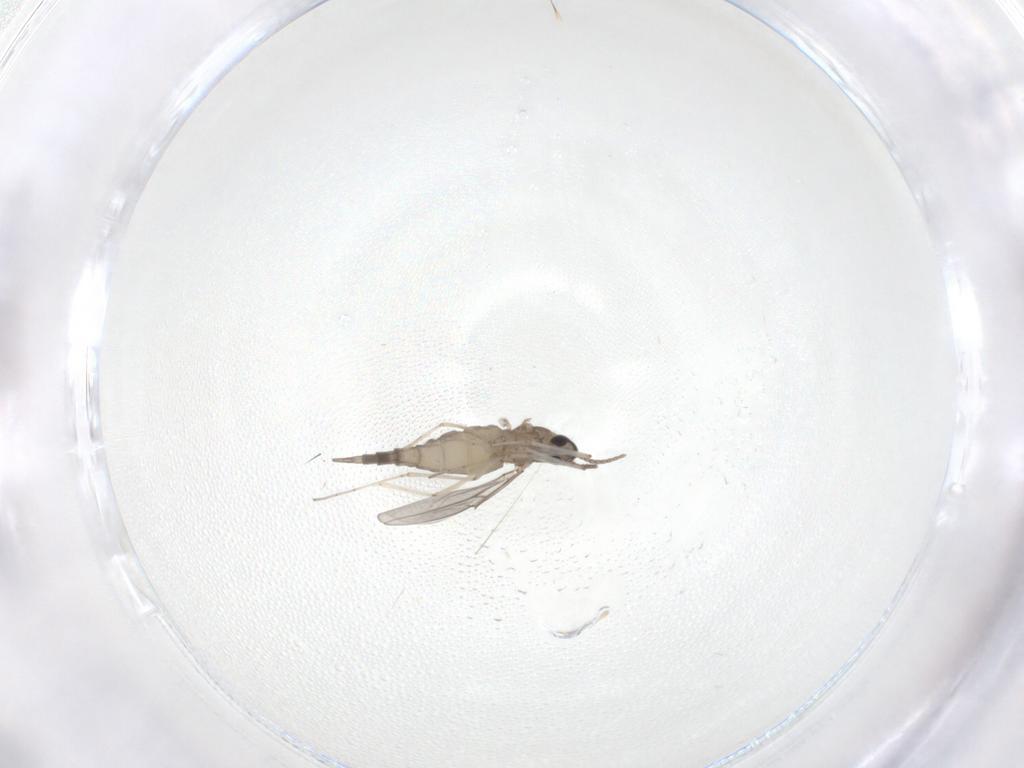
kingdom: Animalia
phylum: Arthropoda
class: Insecta
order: Diptera
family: Cecidomyiidae
